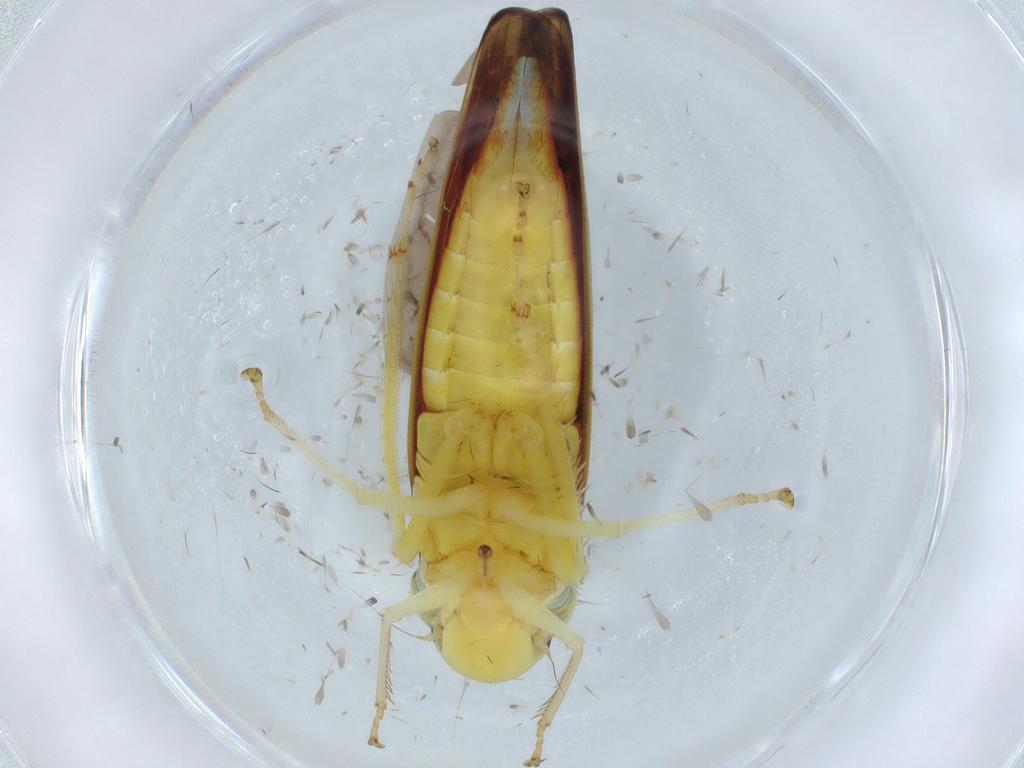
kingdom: Animalia
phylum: Arthropoda
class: Insecta
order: Hemiptera
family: Cicadellidae
